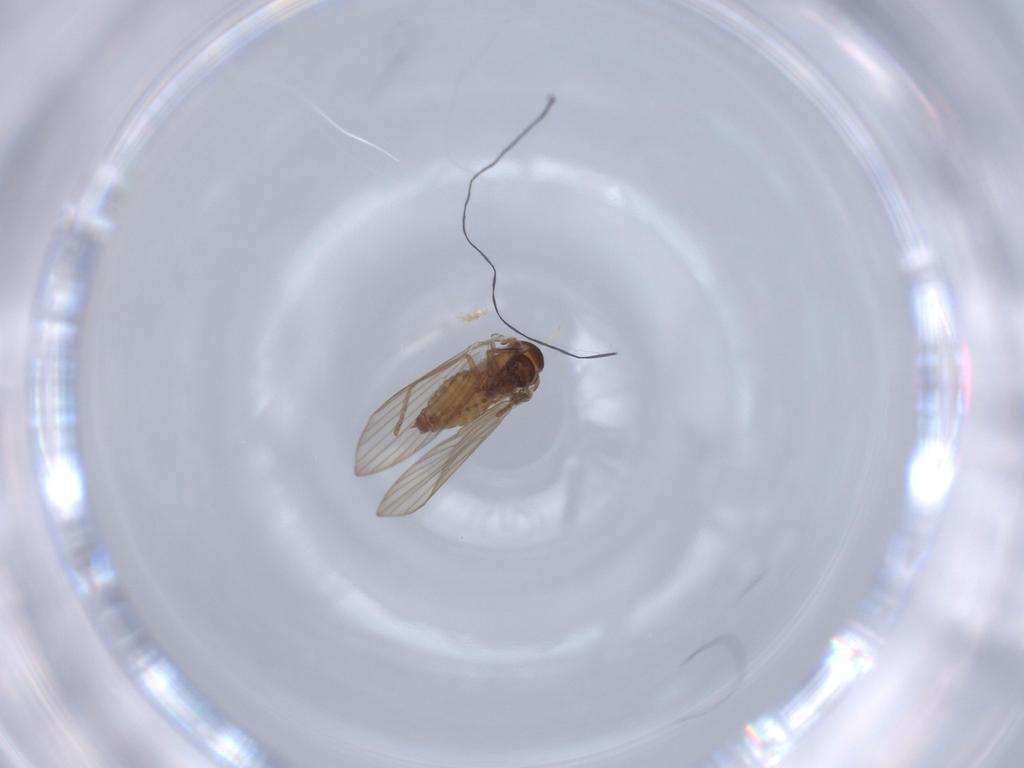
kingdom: Animalia
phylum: Arthropoda
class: Insecta
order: Diptera
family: Psychodidae
